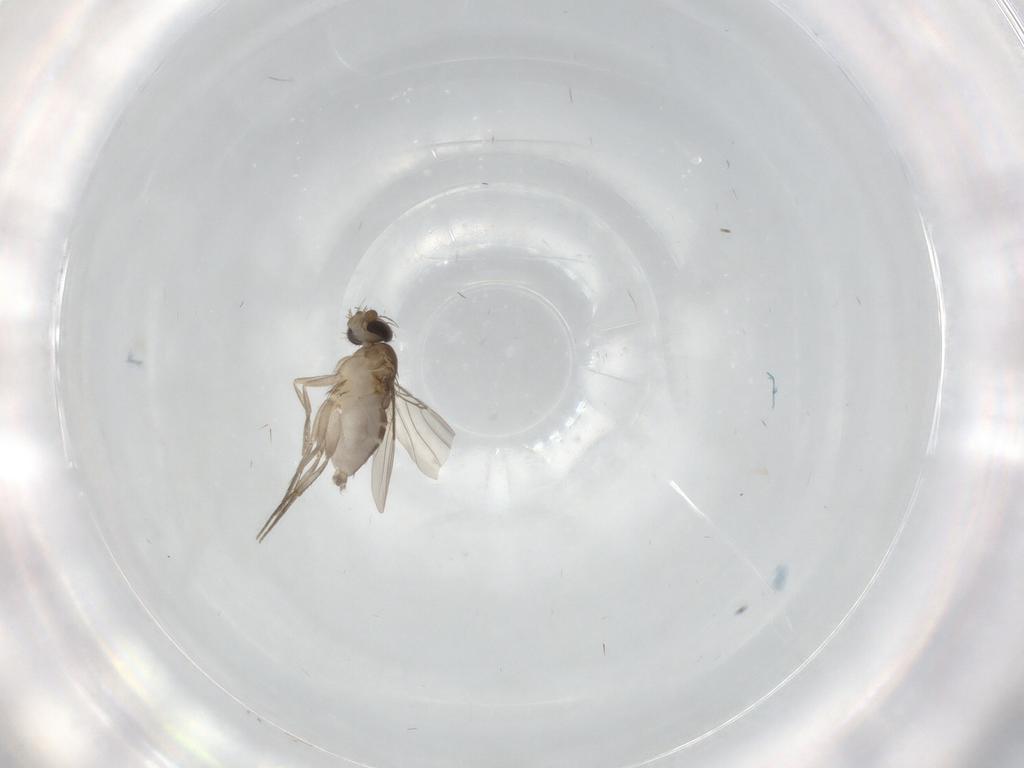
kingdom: Animalia
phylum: Arthropoda
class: Insecta
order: Diptera
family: Phoridae
